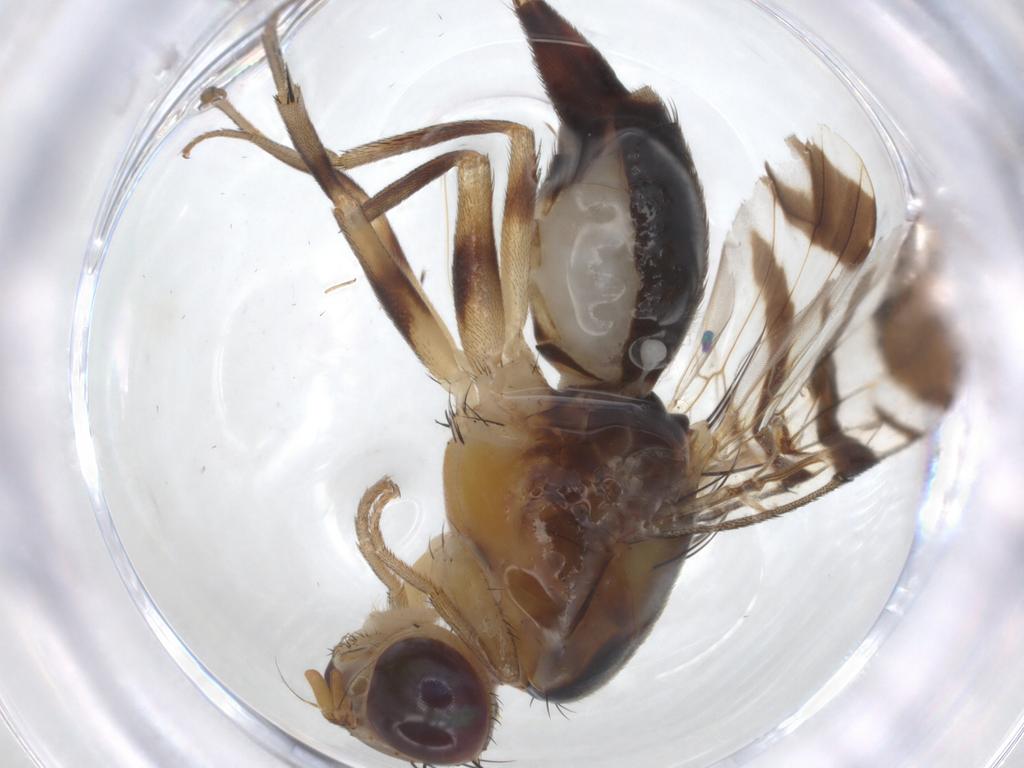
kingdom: Animalia
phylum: Arthropoda
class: Insecta
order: Diptera
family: Tephritidae
